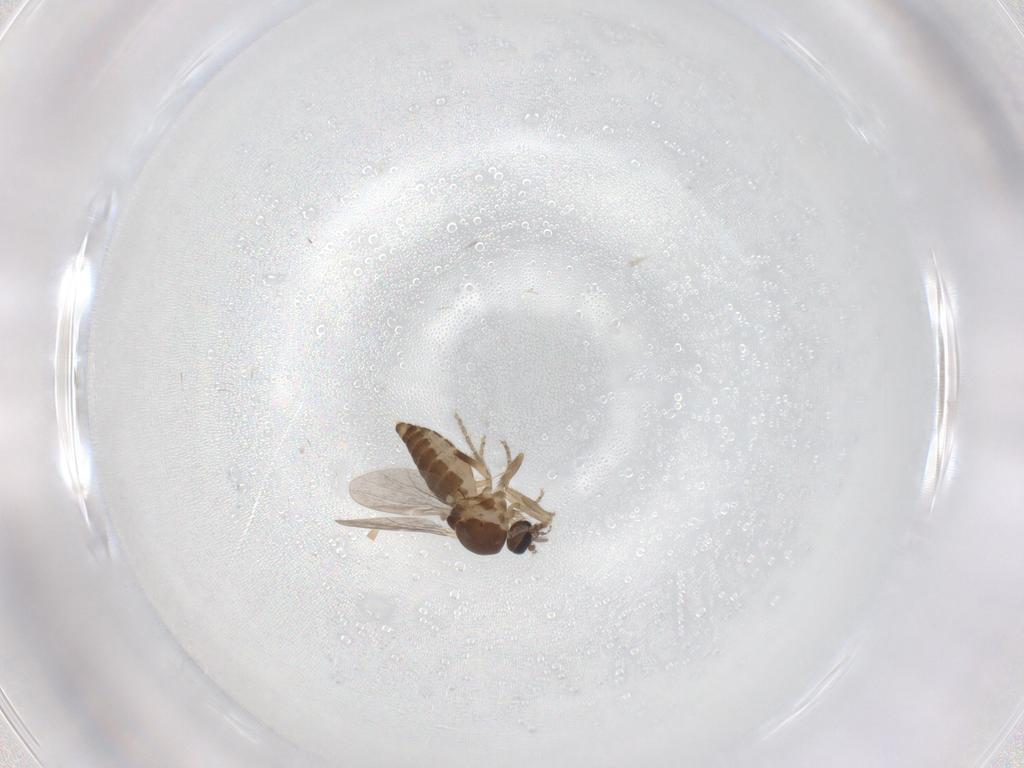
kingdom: Animalia
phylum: Arthropoda
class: Insecta
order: Diptera
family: Ceratopogonidae
